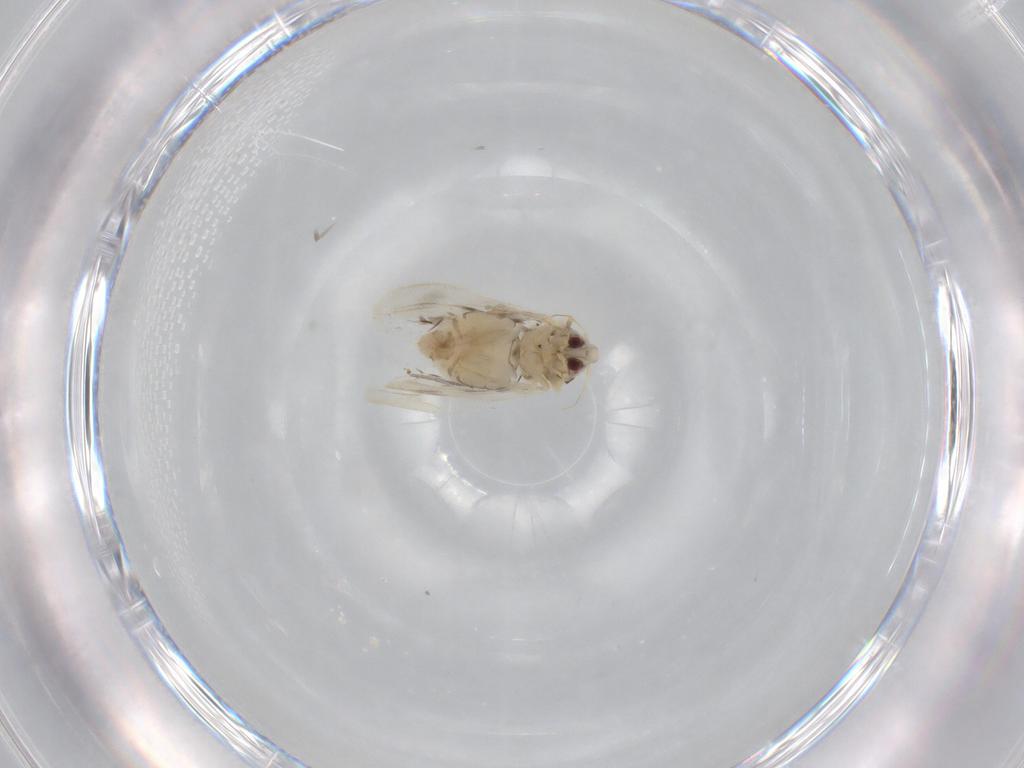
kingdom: Animalia
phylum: Arthropoda
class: Insecta
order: Hemiptera
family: Aleyrodidae
